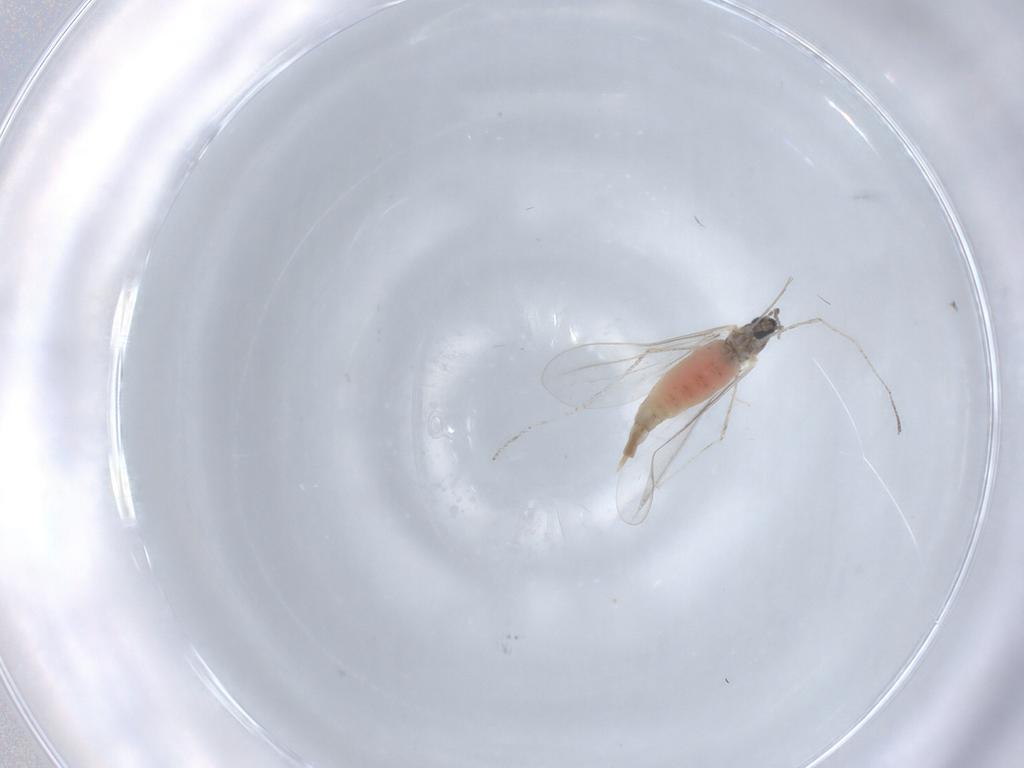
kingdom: Animalia
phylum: Arthropoda
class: Insecta
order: Diptera
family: Cecidomyiidae
